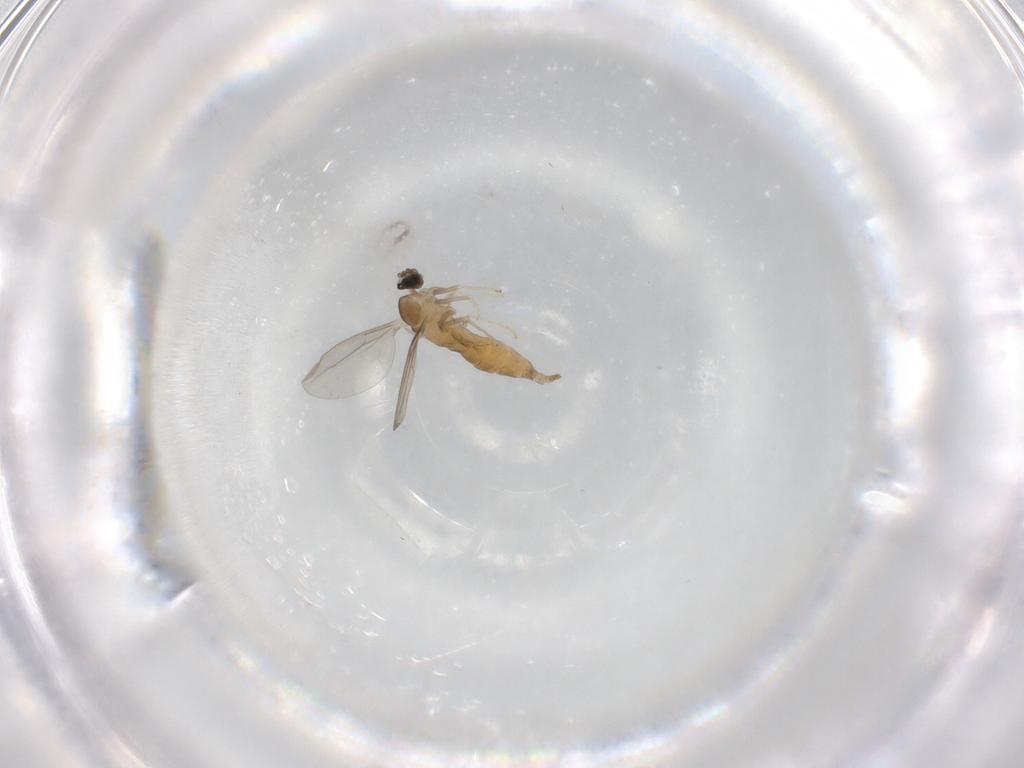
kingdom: Animalia
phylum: Arthropoda
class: Insecta
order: Diptera
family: Cecidomyiidae
